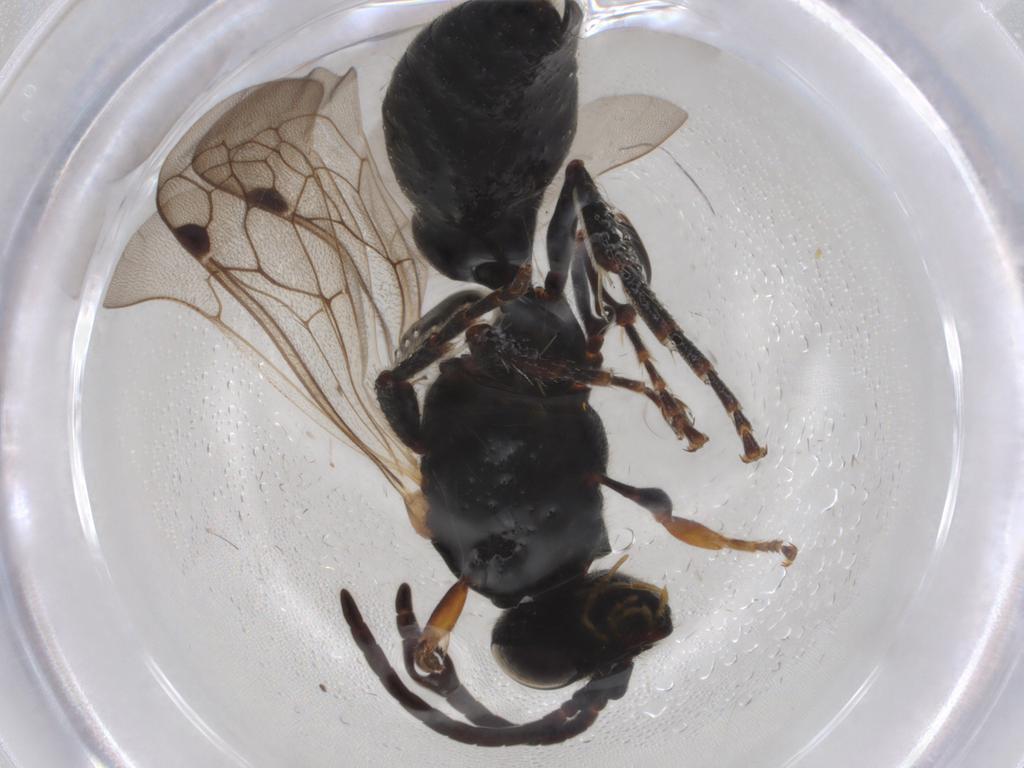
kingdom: Animalia
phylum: Arthropoda
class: Insecta
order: Hymenoptera
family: Tiphiidae
